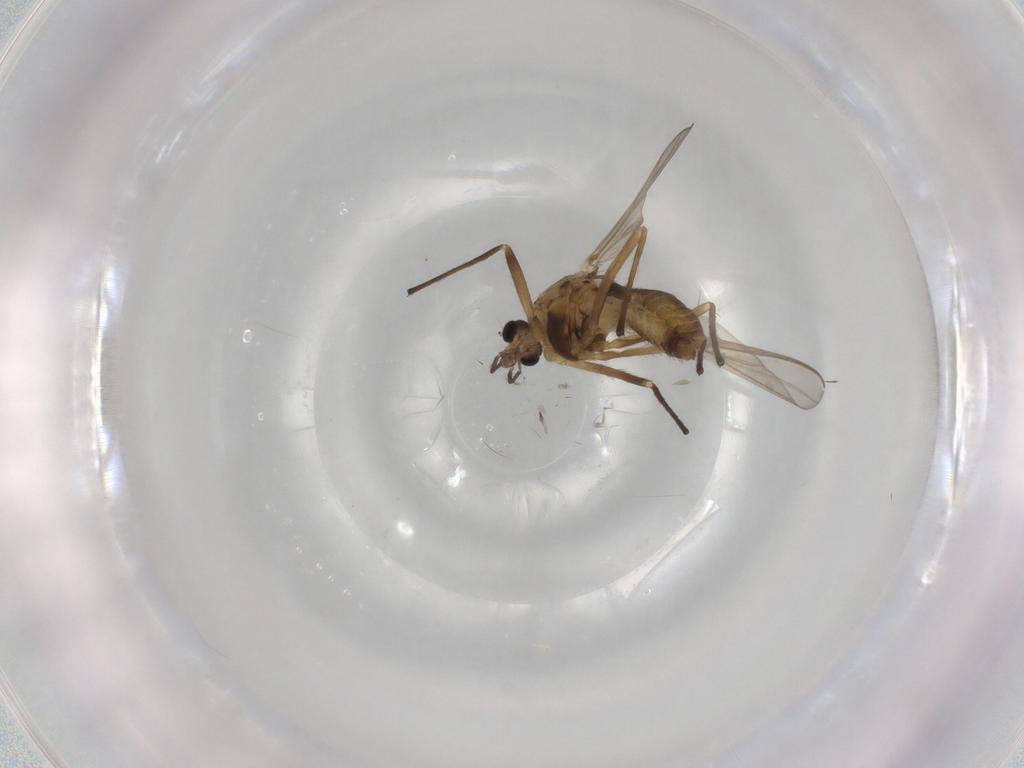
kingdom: Animalia
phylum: Arthropoda
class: Insecta
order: Diptera
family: Chironomidae
